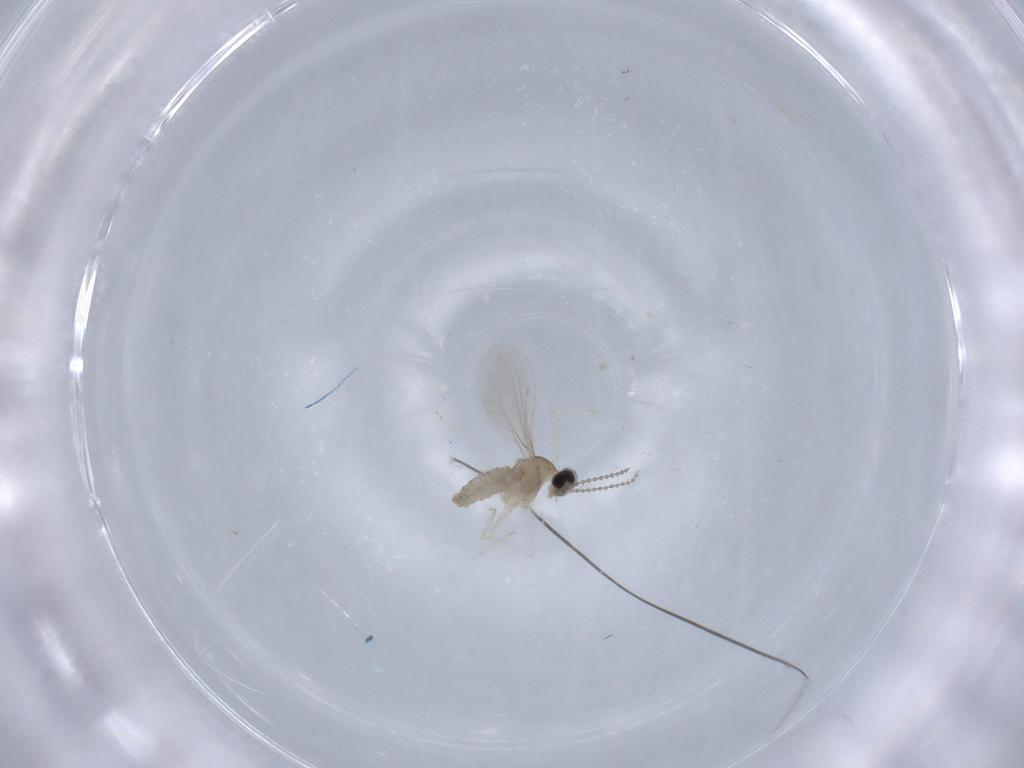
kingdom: Animalia
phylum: Arthropoda
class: Insecta
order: Diptera
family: Cecidomyiidae
